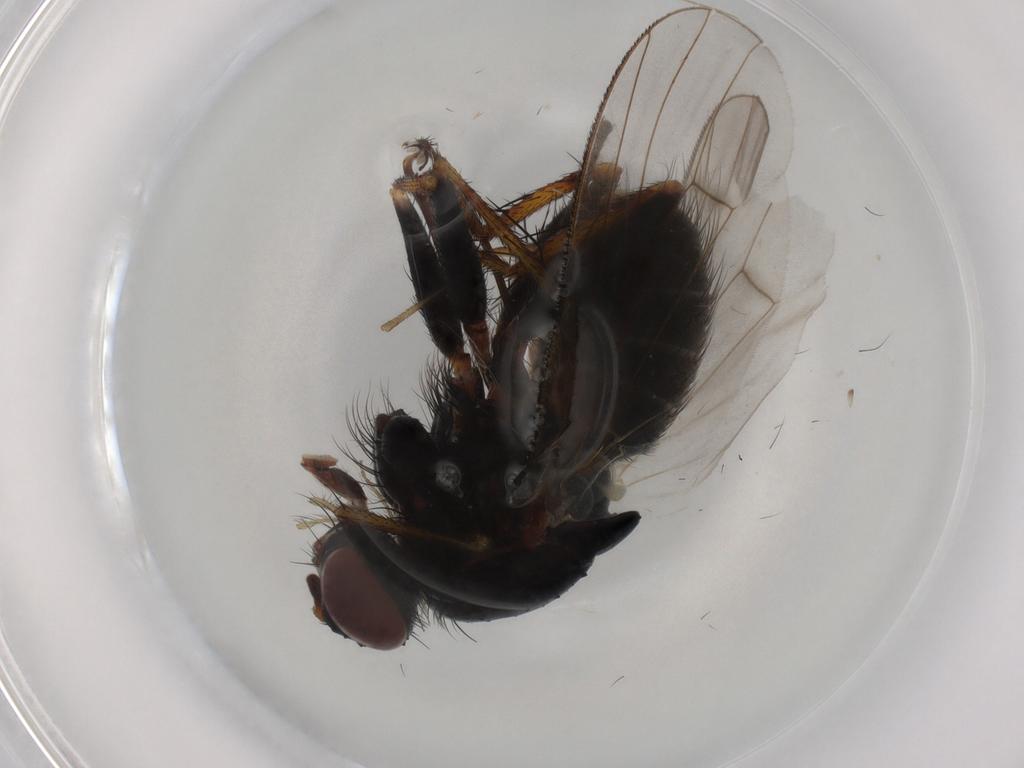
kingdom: Animalia
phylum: Arthropoda
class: Insecta
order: Diptera
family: Muscidae
